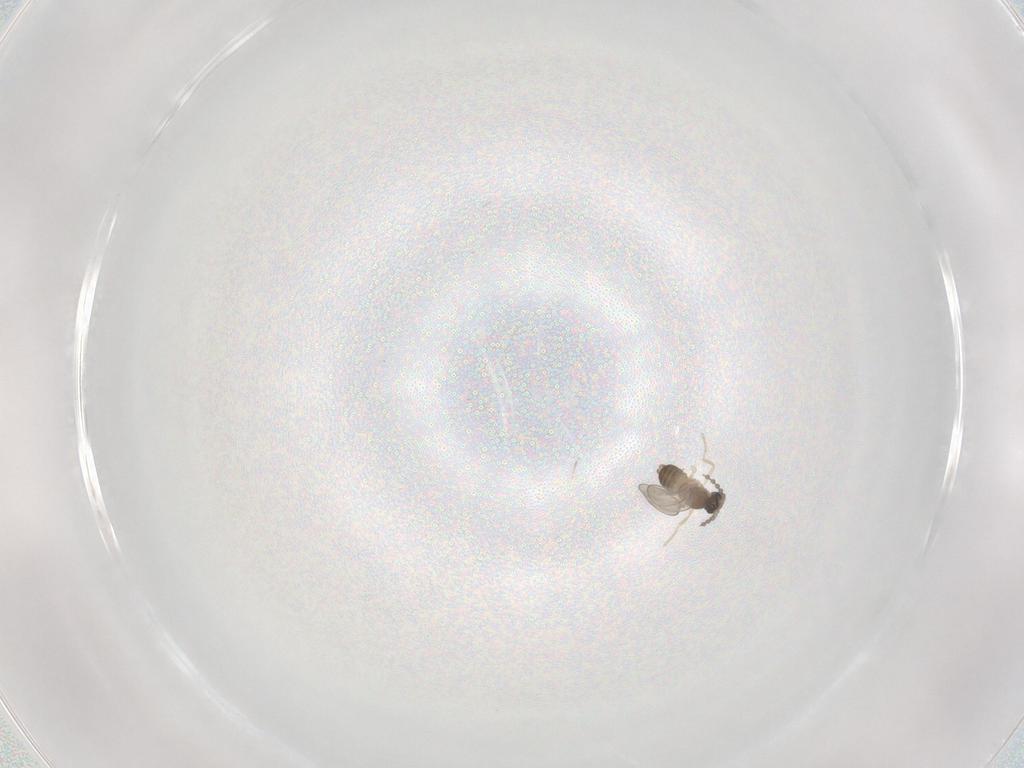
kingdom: Animalia
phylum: Arthropoda
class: Insecta
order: Diptera
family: Cecidomyiidae
